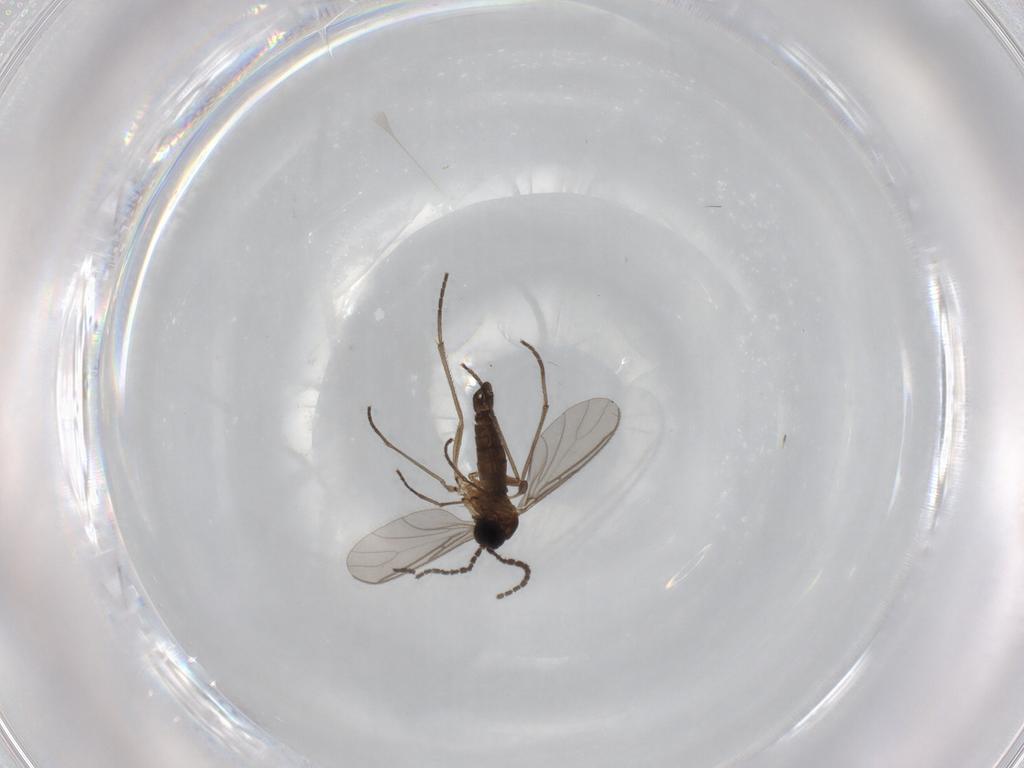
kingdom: Animalia
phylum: Arthropoda
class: Insecta
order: Diptera
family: Sciaridae
